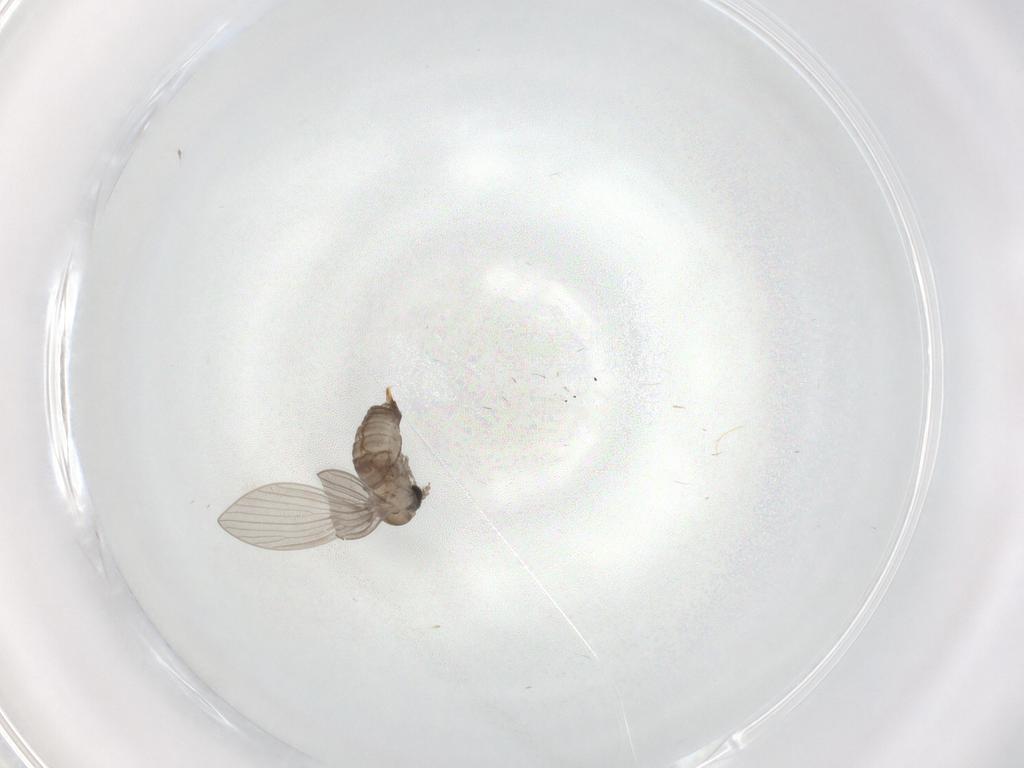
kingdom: Animalia
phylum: Arthropoda
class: Insecta
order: Diptera
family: Psychodidae
